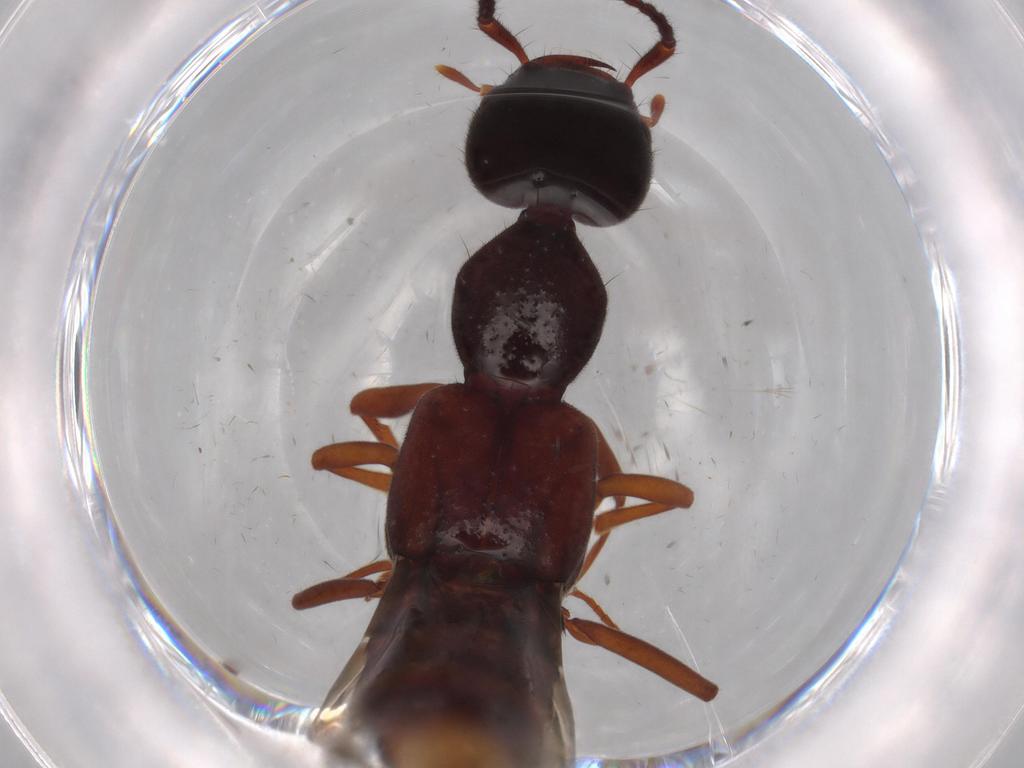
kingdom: Animalia
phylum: Arthropoda
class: Insecta
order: Coleoptera
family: Staphylinidae
